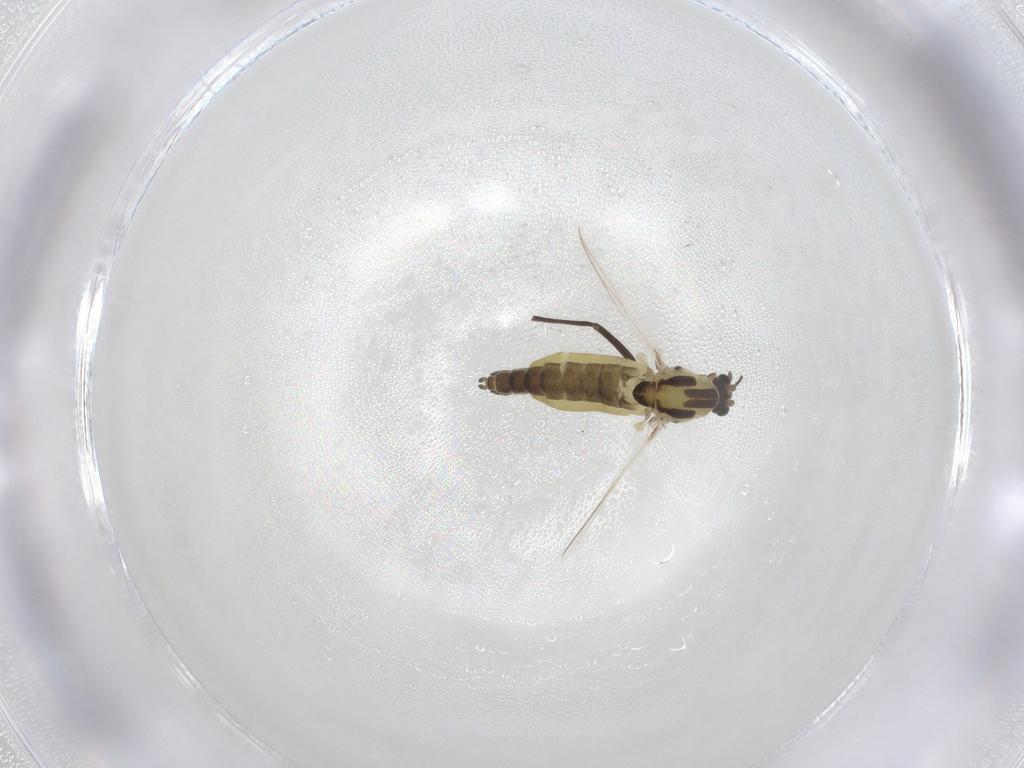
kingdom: Animalia
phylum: Arthropoda
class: Insecta
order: Diptera
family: Chironomidae
